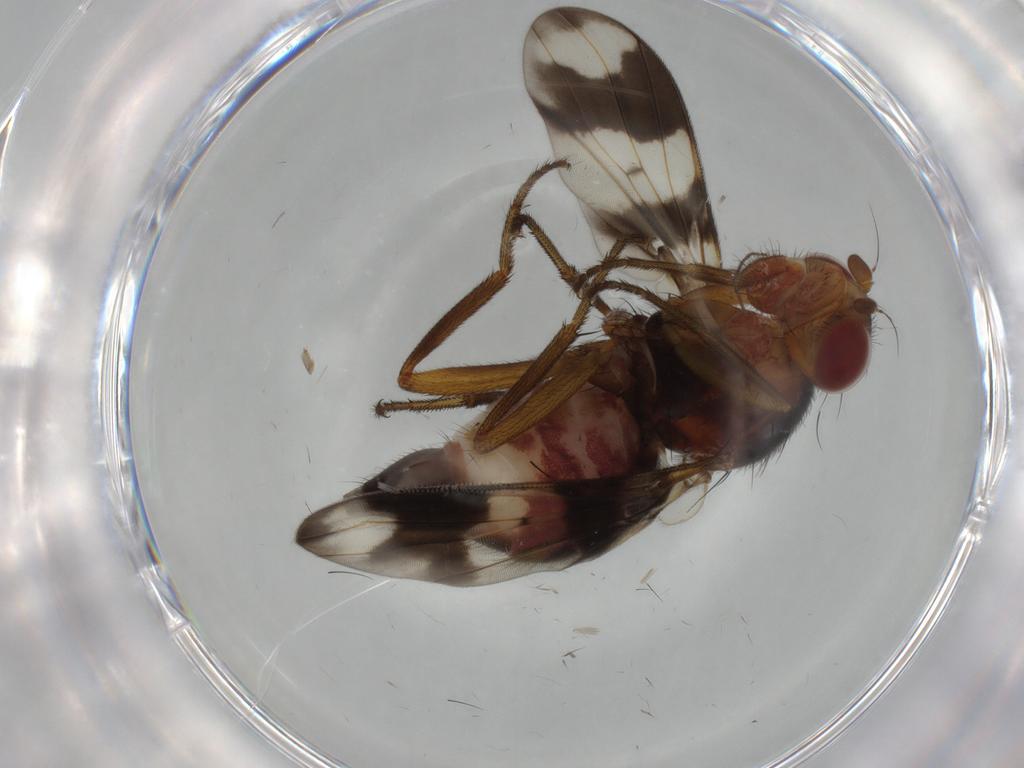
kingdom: Animalia
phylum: Arthropoda
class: Insecta
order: Diptera
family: Richardiidae
